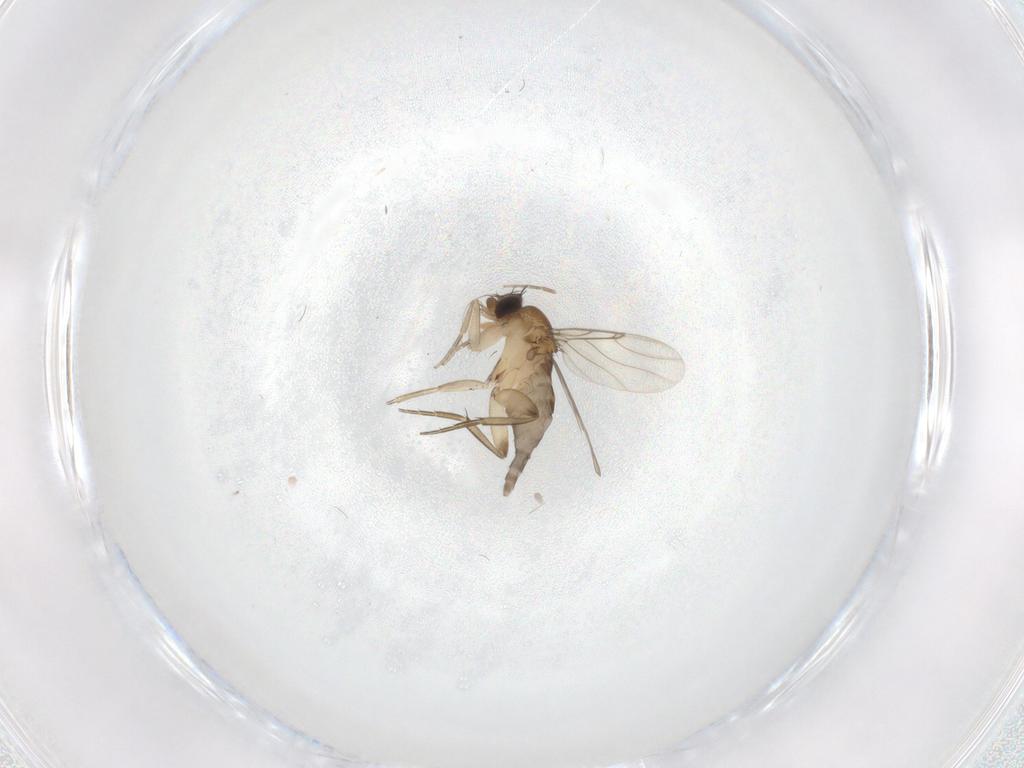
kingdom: Animalia
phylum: Arthropoda
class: Insecta
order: Diptera
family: Phoridae
